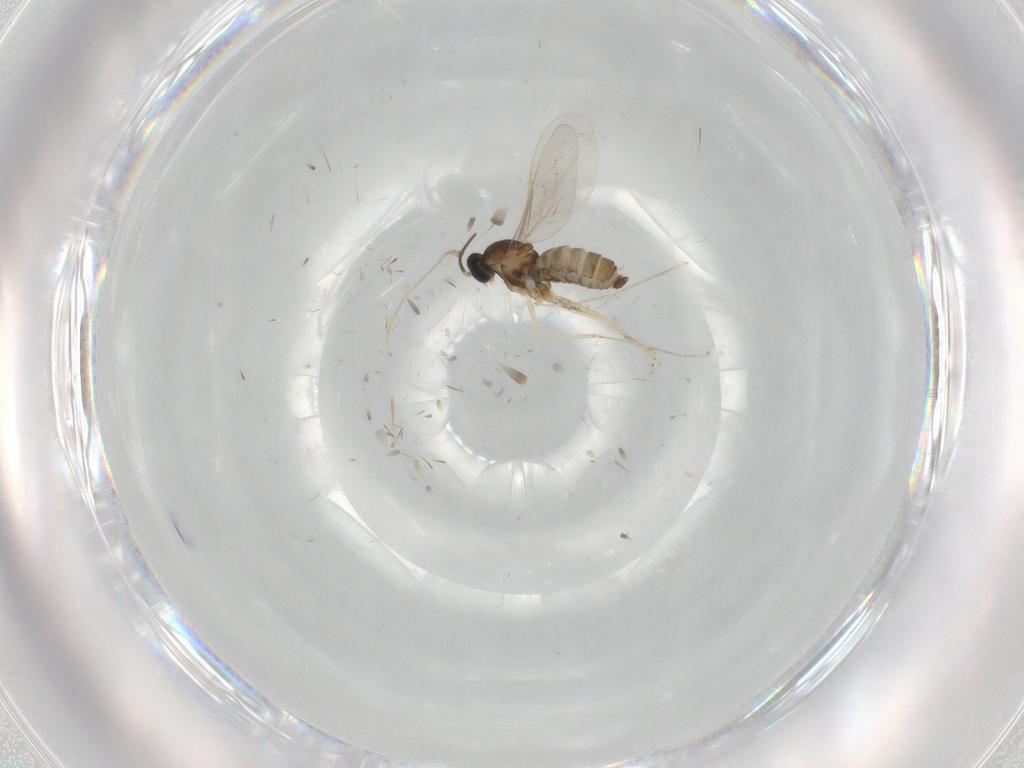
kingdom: Animalia
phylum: Arthropoda
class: Insecta
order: Diptera
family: Cecidomyiidae
